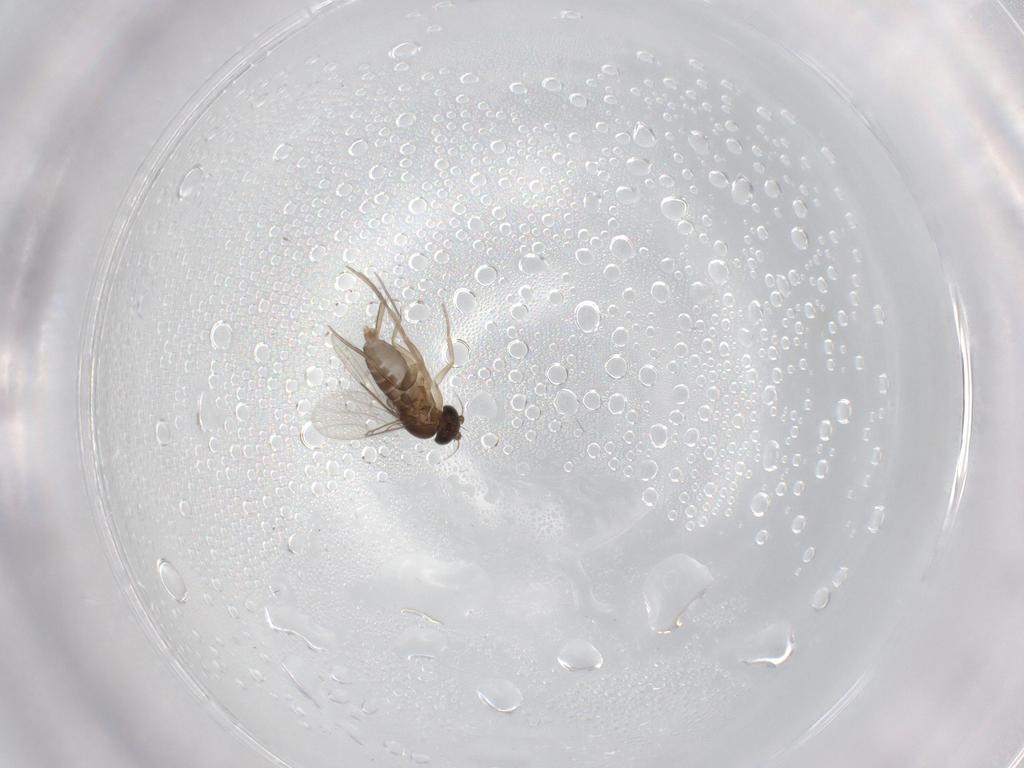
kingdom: Animalia
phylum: Arthropoda
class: Insecta
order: Diptera
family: Phoridae
